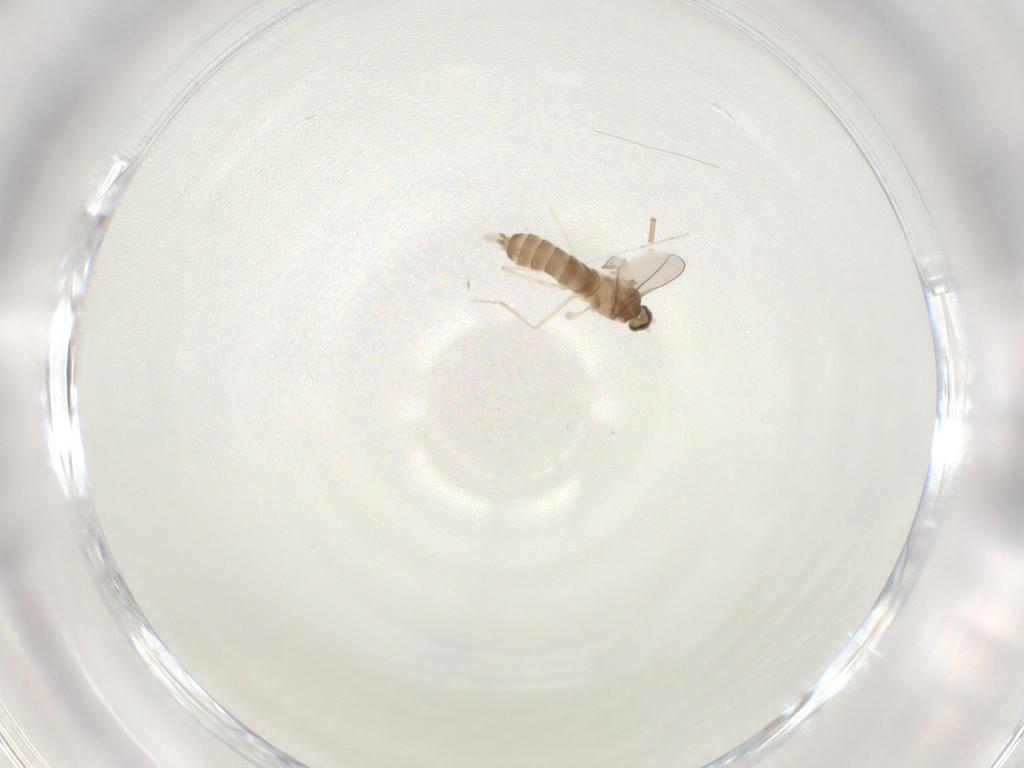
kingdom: Animalia
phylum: Arthropoda
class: Insecta
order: Diptera
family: Cecidomyiidae
